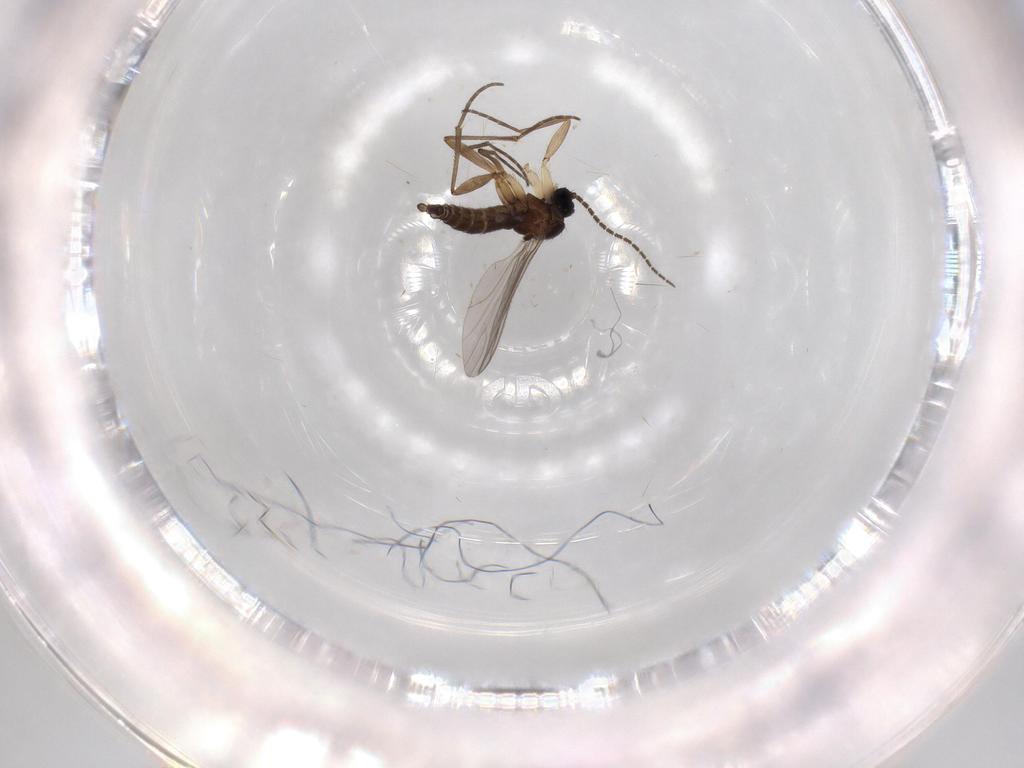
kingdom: Animalia
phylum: Arthropoda
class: Insecta
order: Diptera
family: Sciaridae
